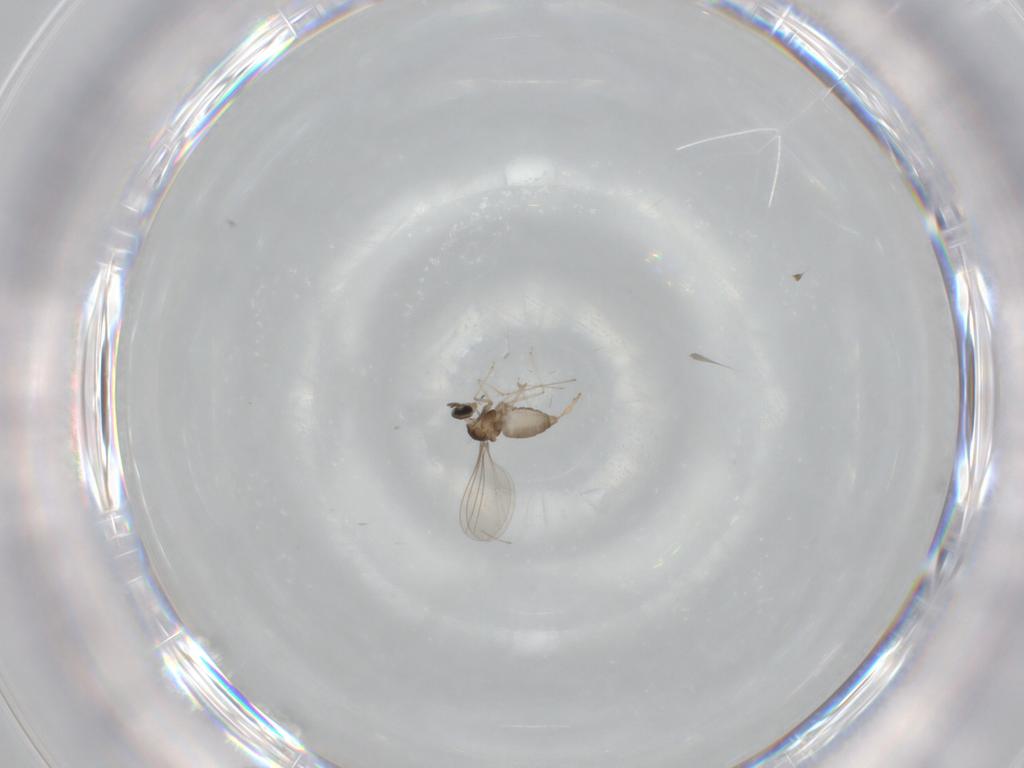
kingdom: Animalia
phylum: Arthropoda
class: Insecta
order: Diptera
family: Cecidomyiidae
